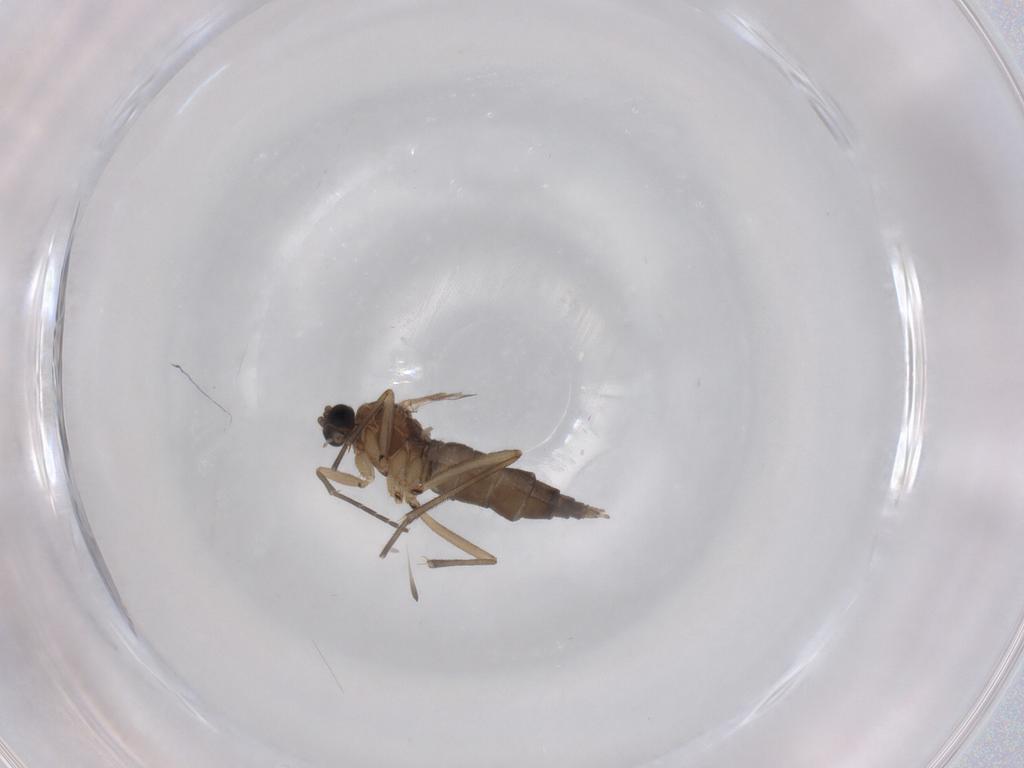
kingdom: Animalia
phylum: Arthropoda
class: Insecta
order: Diptera
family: Sciaridae
